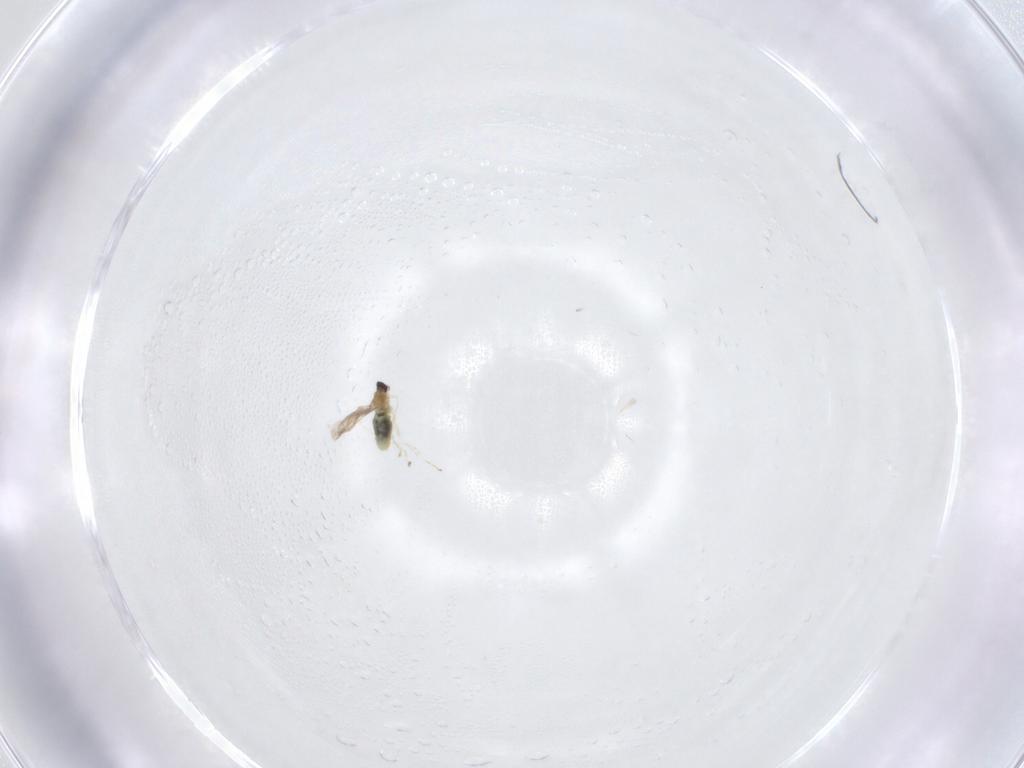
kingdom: Animalia
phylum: Arthropoda
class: Insecta
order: Diptera
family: Cecidomyiidae
